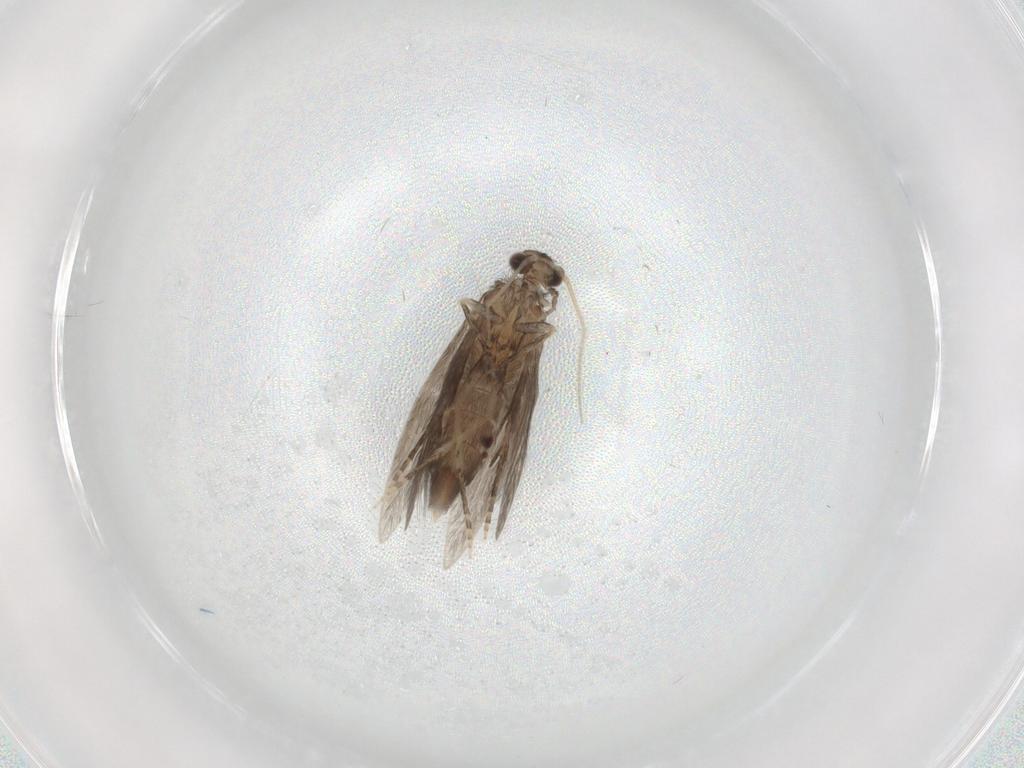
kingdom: Animalia
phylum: Arthropoda
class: Insecta
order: Trichoptera
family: Hydroptilidae
